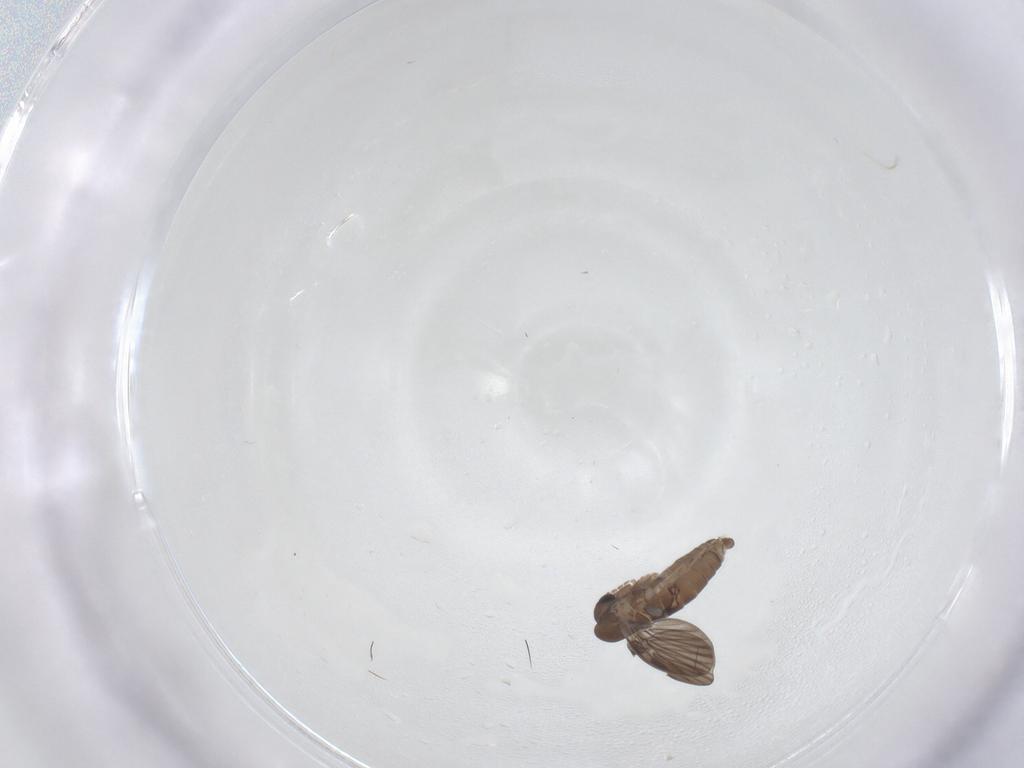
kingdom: Animalia
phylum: Arthropoda
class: Insecta
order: Diptera
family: Tabanidae
